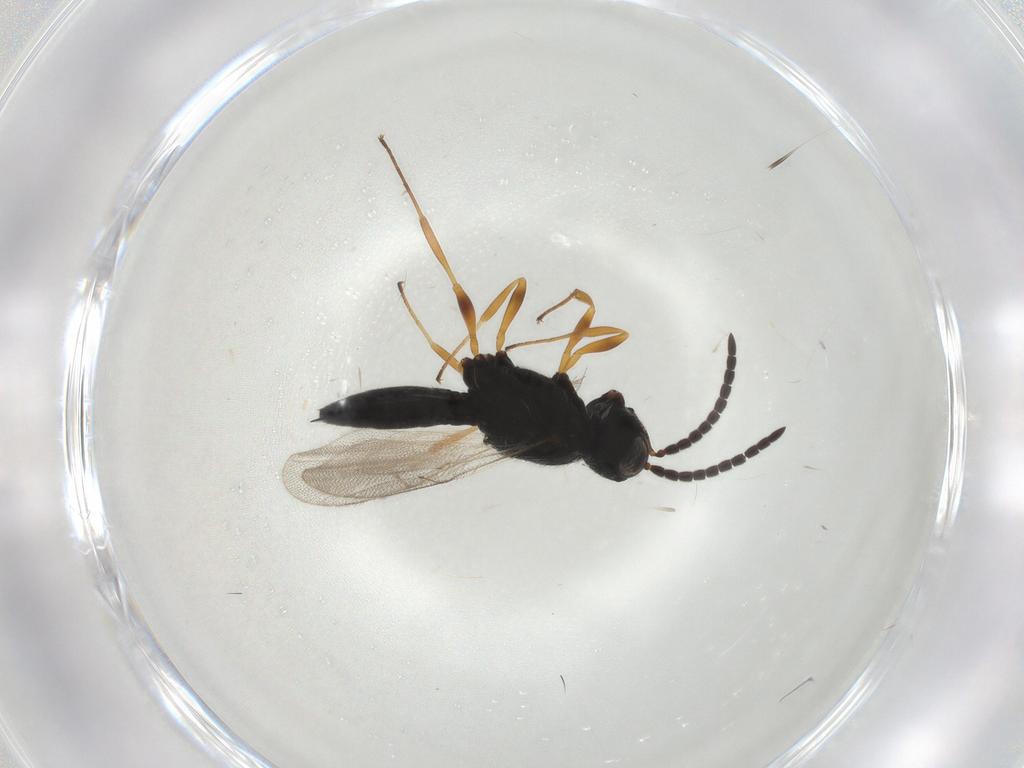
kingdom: Animalia
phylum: Arthropoda
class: Insecta
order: Hymenoptera
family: Scelionidae
